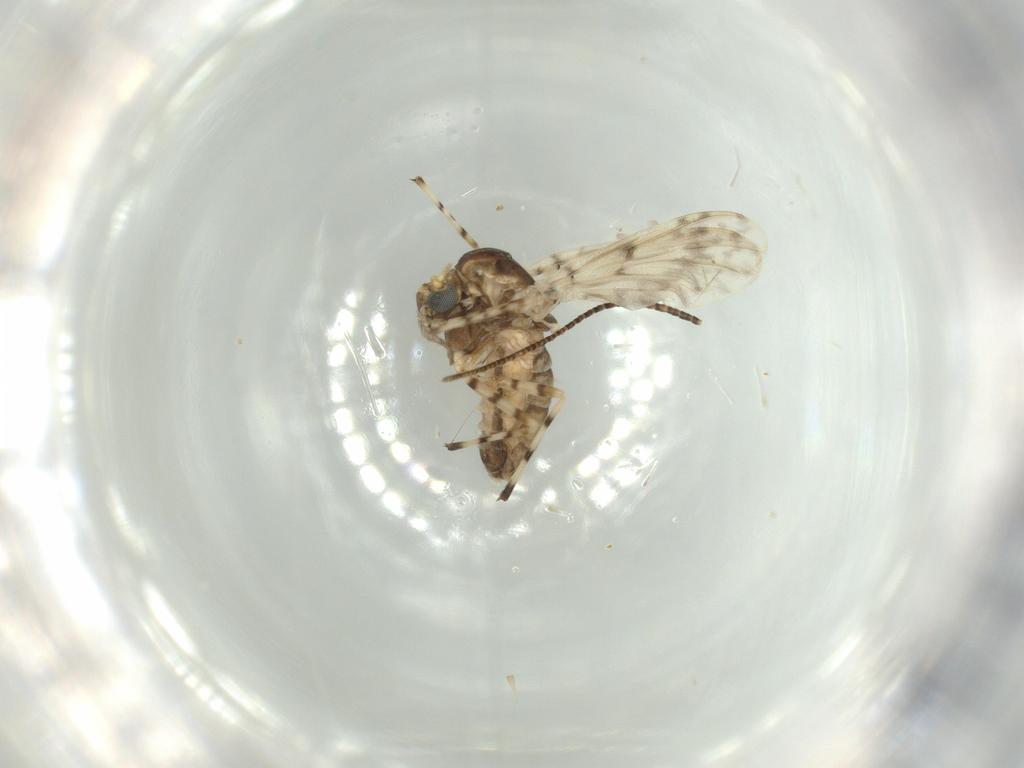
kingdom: Animalia
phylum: Arthropoda
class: Insecta
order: Diptera
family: Chironomidae
